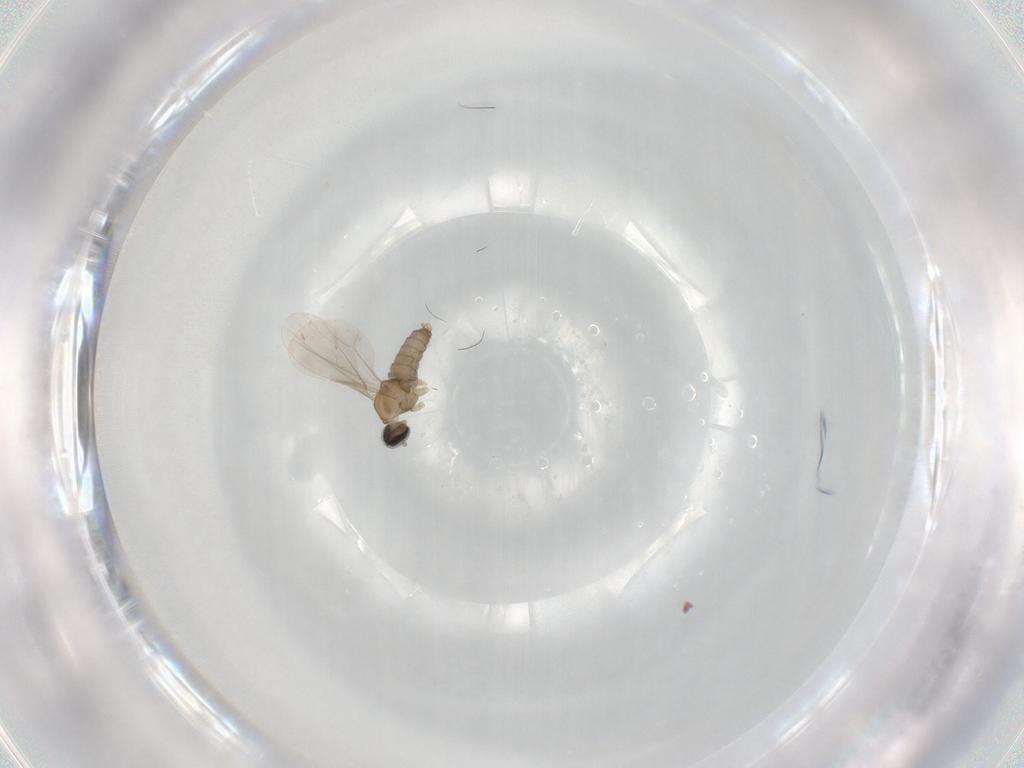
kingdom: Animalia
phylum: Arthropoda
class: Insecta
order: Diptera
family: Cecidomyiidae
